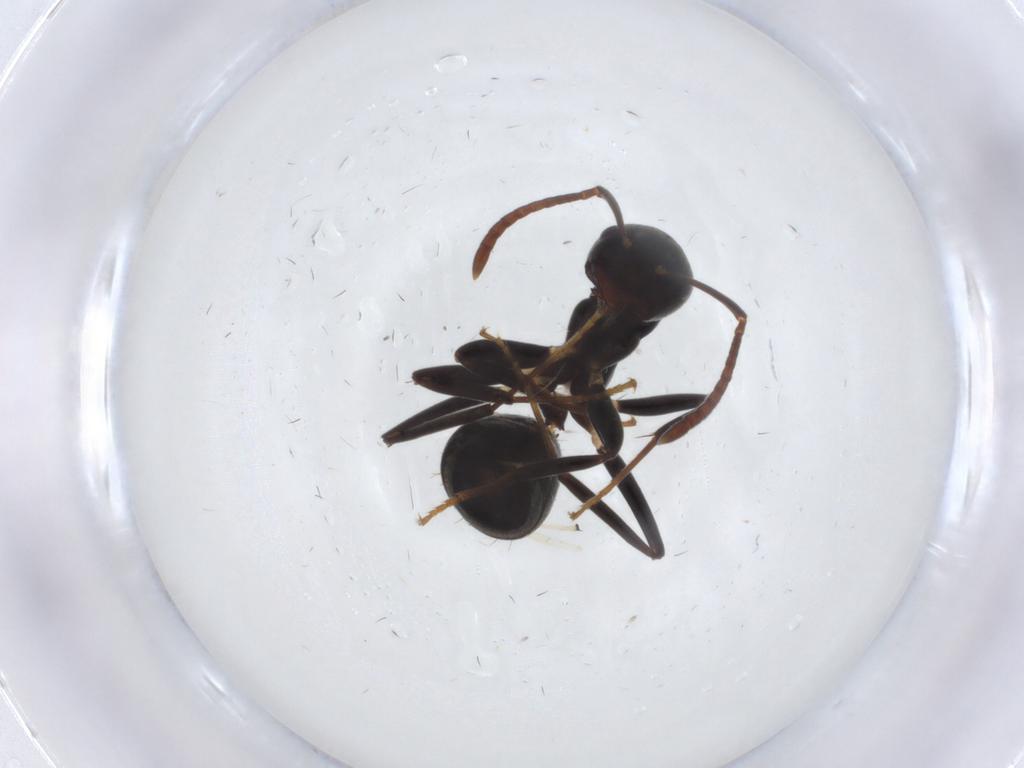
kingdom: Animalia
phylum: Arthropoda
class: Insecta
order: Hymenoptera
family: Formicidae
